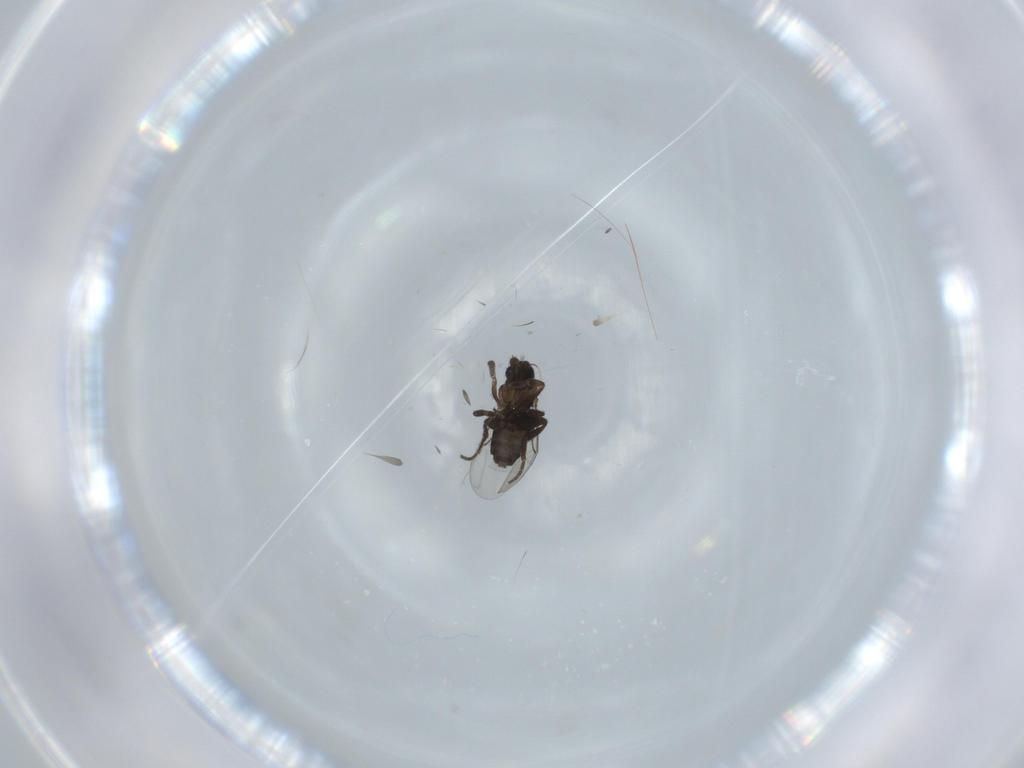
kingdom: Animalia
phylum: Arthropoda
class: Insecta
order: Diptera
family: Phoridae
